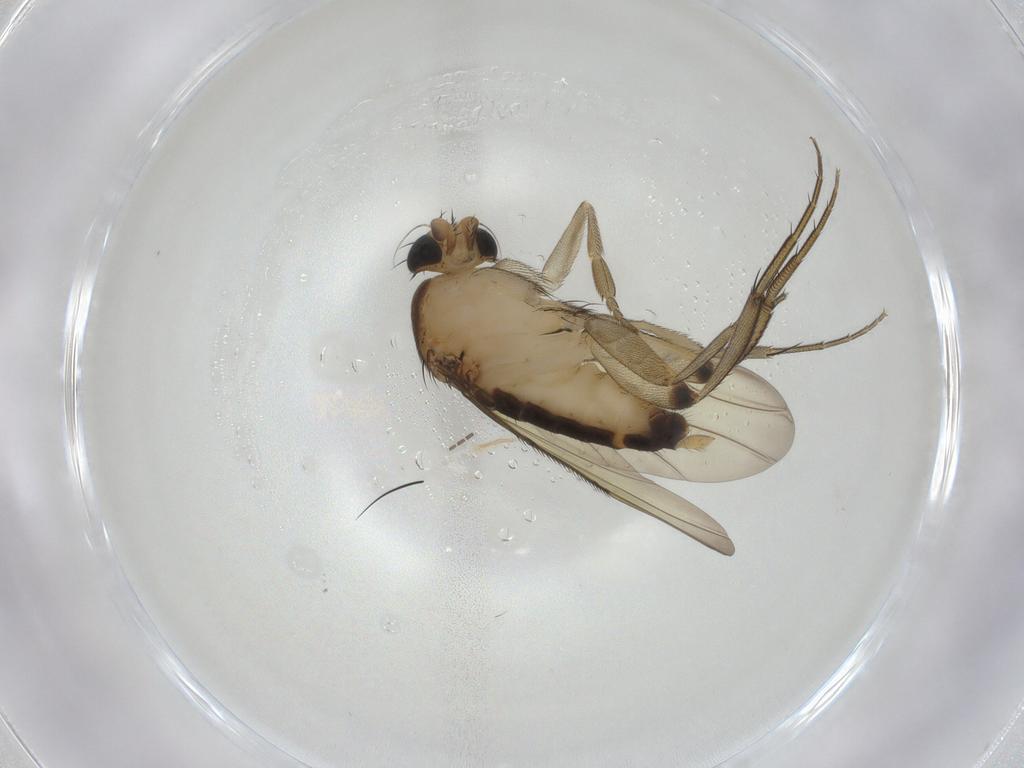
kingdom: Animalia
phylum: Arthropoda
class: Insecta
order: Diptera
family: Phoridae
